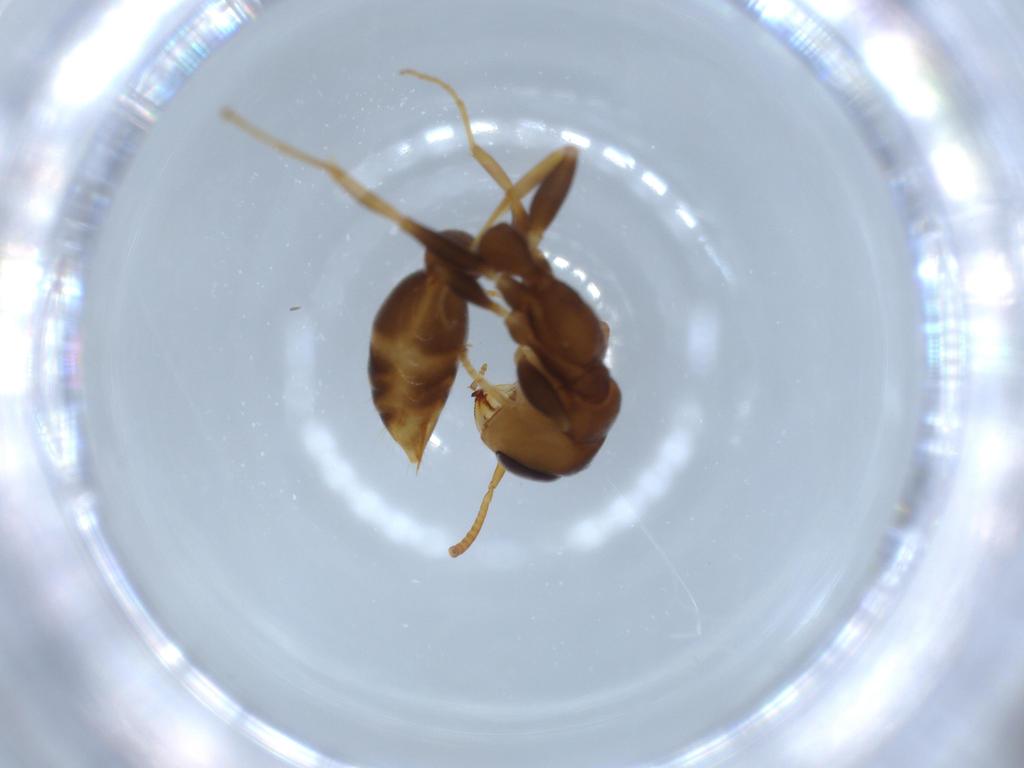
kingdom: Animalia
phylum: Arthropoda
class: Insecta
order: Hymenoptera
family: Formicidae
